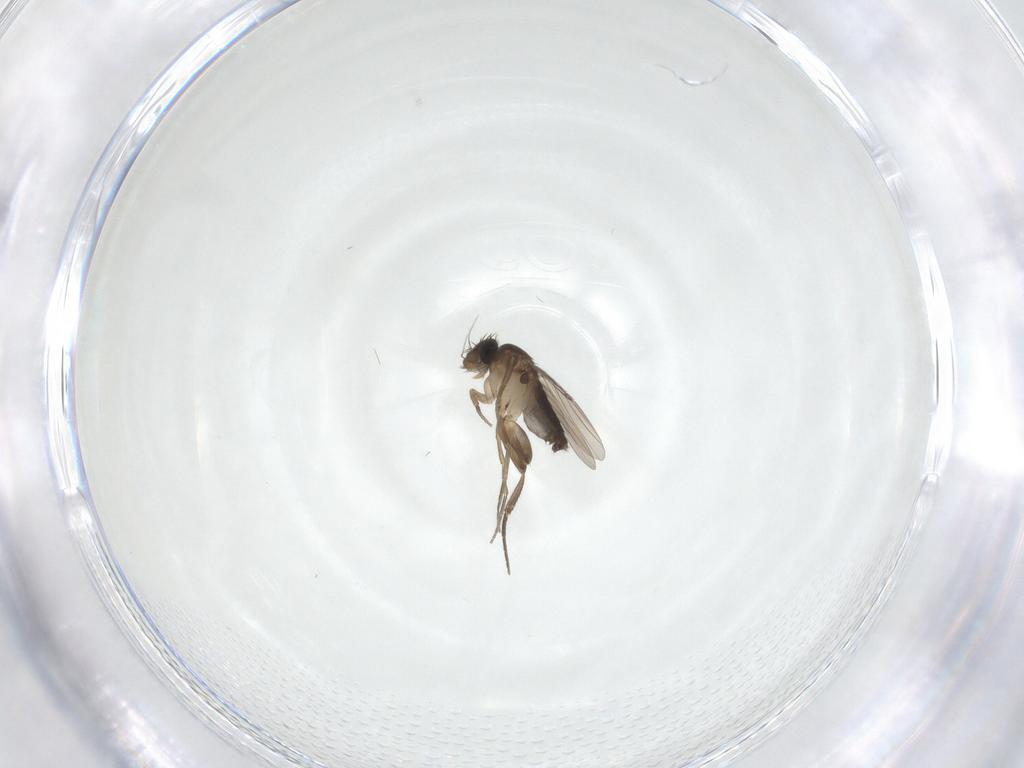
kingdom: Animalia
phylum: Arthropoda
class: Insecta
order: Diptera
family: Phoridae
